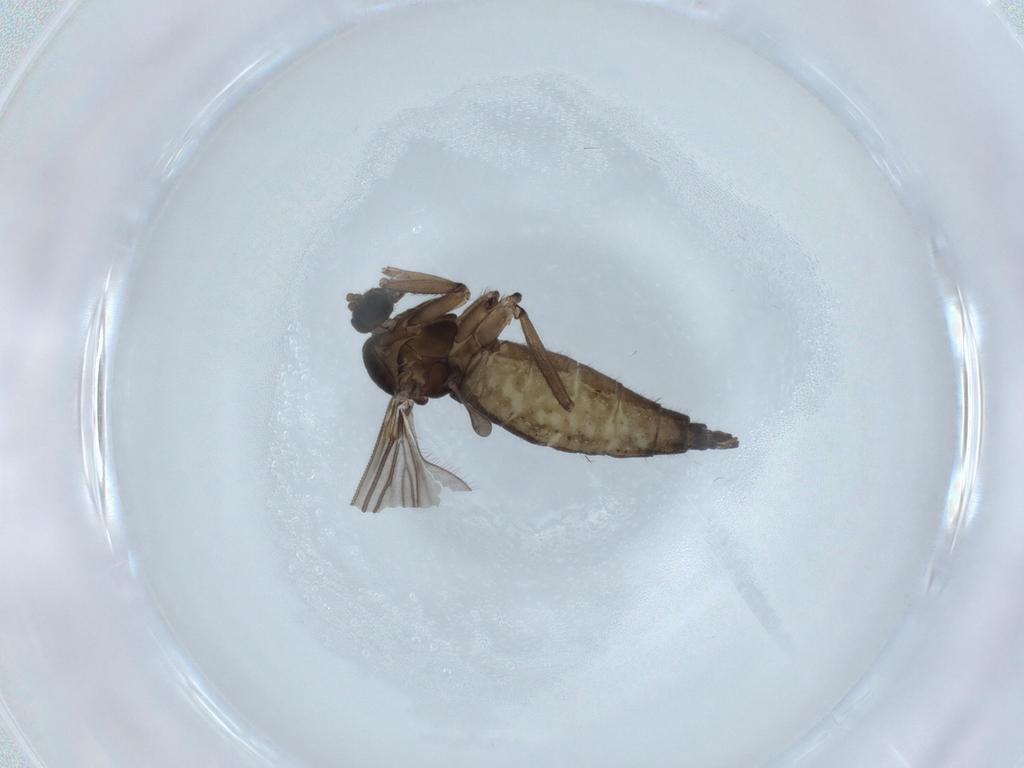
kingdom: Animalia
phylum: Arthropoda
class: Insecta
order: Diptera
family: Sciaridae
